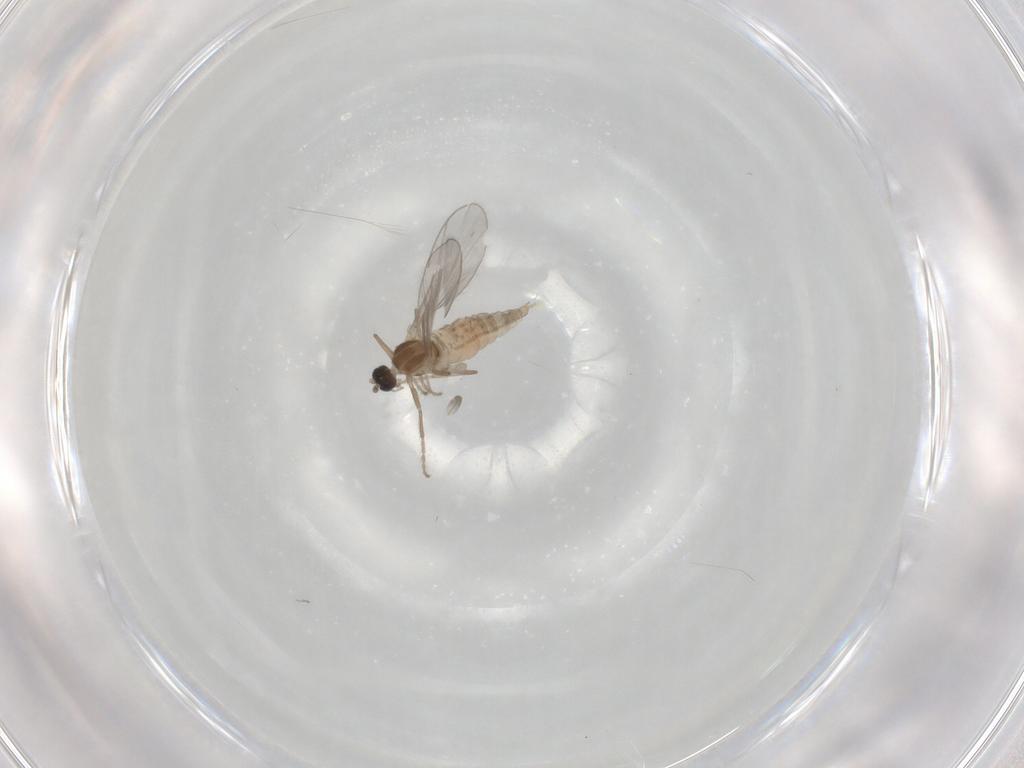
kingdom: Animalia
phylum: Arthropoda
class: Insecta
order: Diptera
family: Cecidomyiidae
